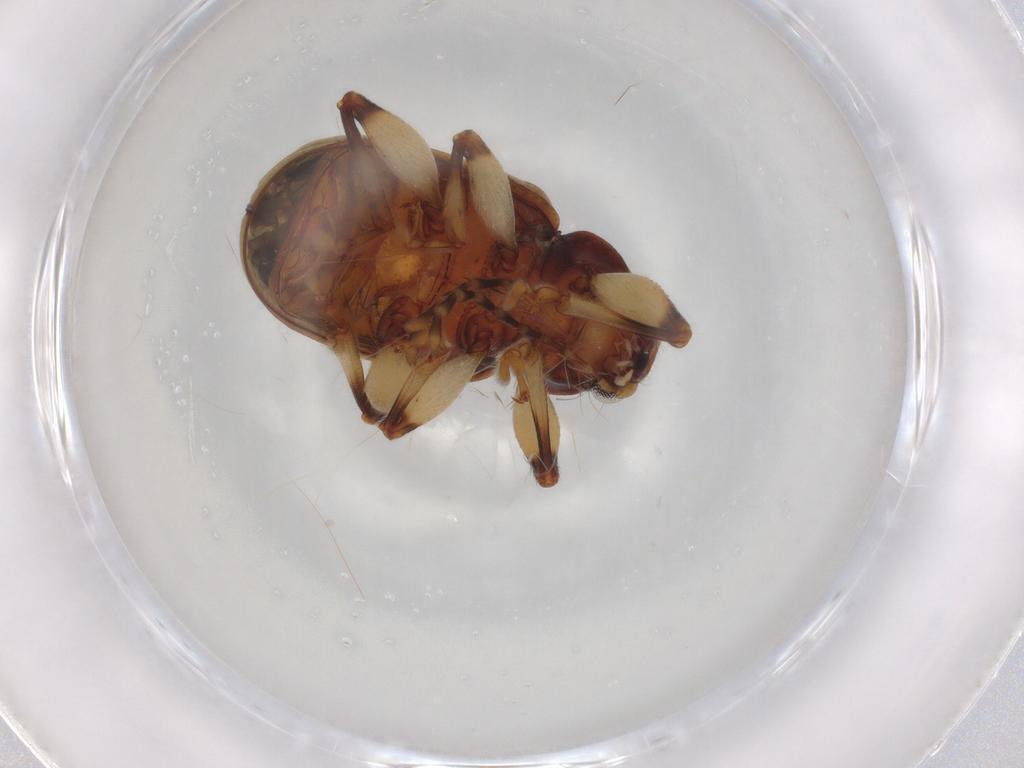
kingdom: Animalia
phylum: Arthropoda
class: Insecta
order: Coleoptera
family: Chrysomelidae
